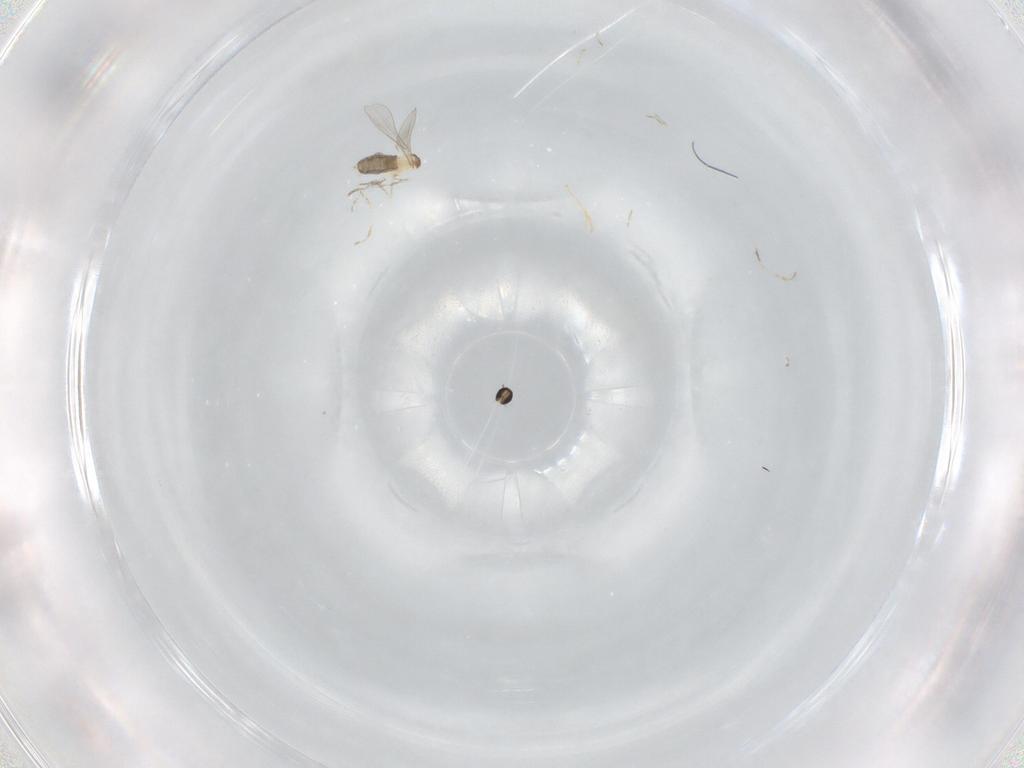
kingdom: Animalia
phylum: Arthropoda
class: Insecta
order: Diptera
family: Cecidomyiidae
